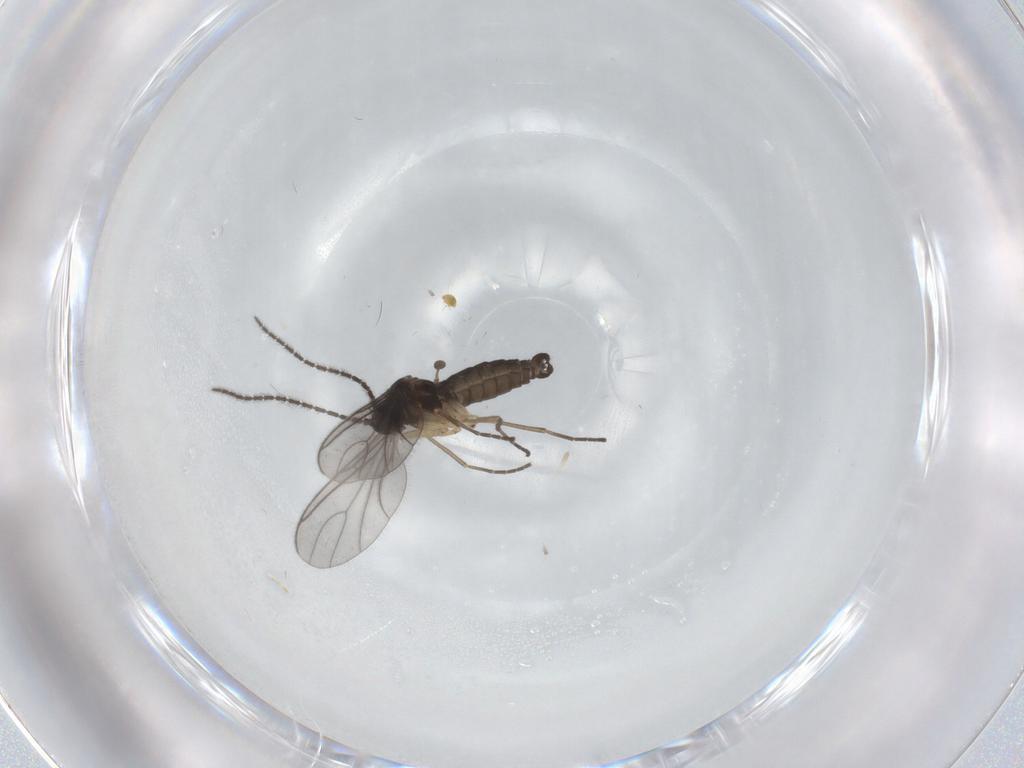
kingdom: Animalia
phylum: Arthropoda
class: Insecta
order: Diptera
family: Sciaridae
